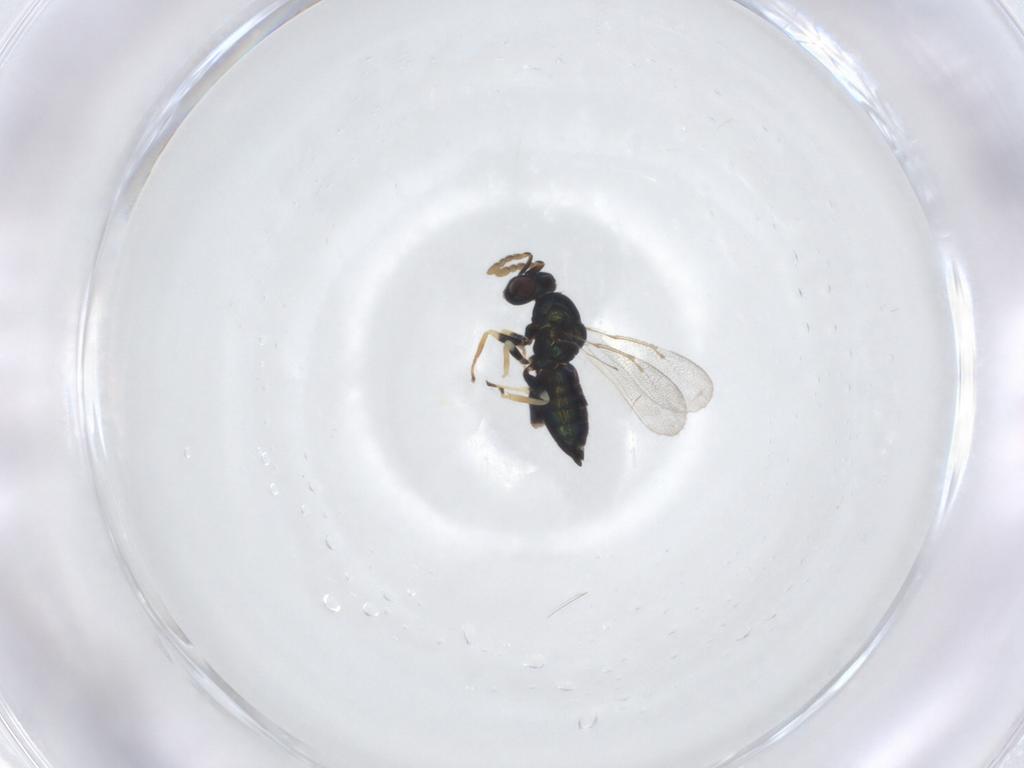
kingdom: Animalia
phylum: Arthropoda
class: Insecta
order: Hymenoptera
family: Eulophidae
